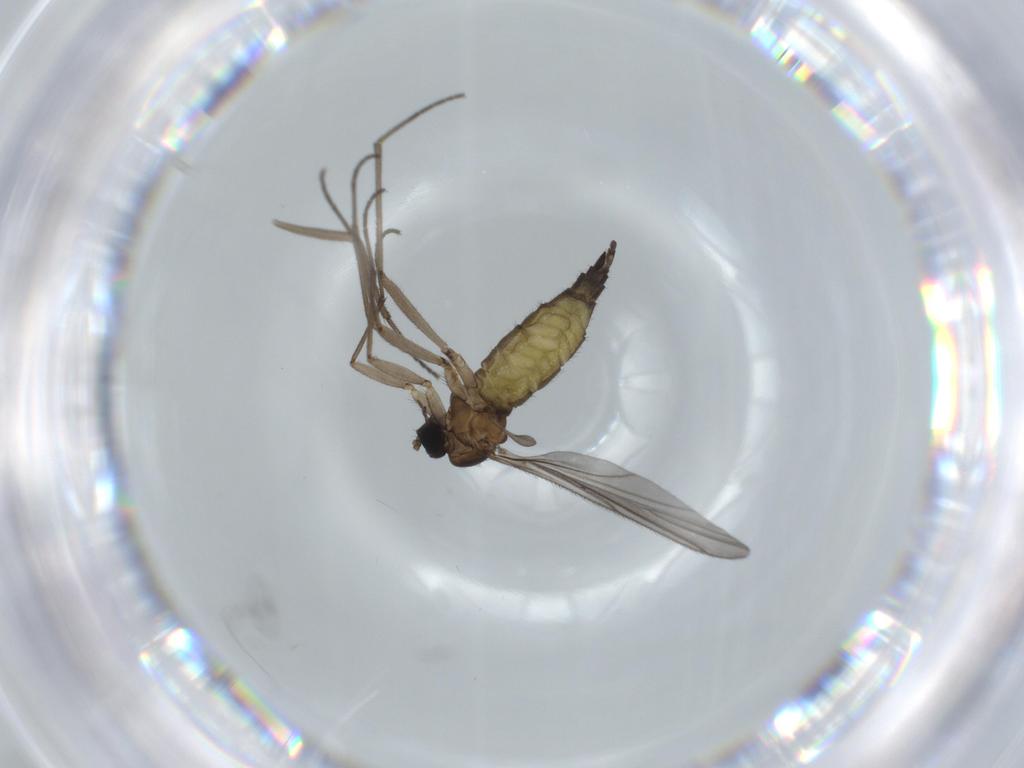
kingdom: Animalia
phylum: Arthropoda
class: Insecta
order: Diptera
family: Sciaridae
